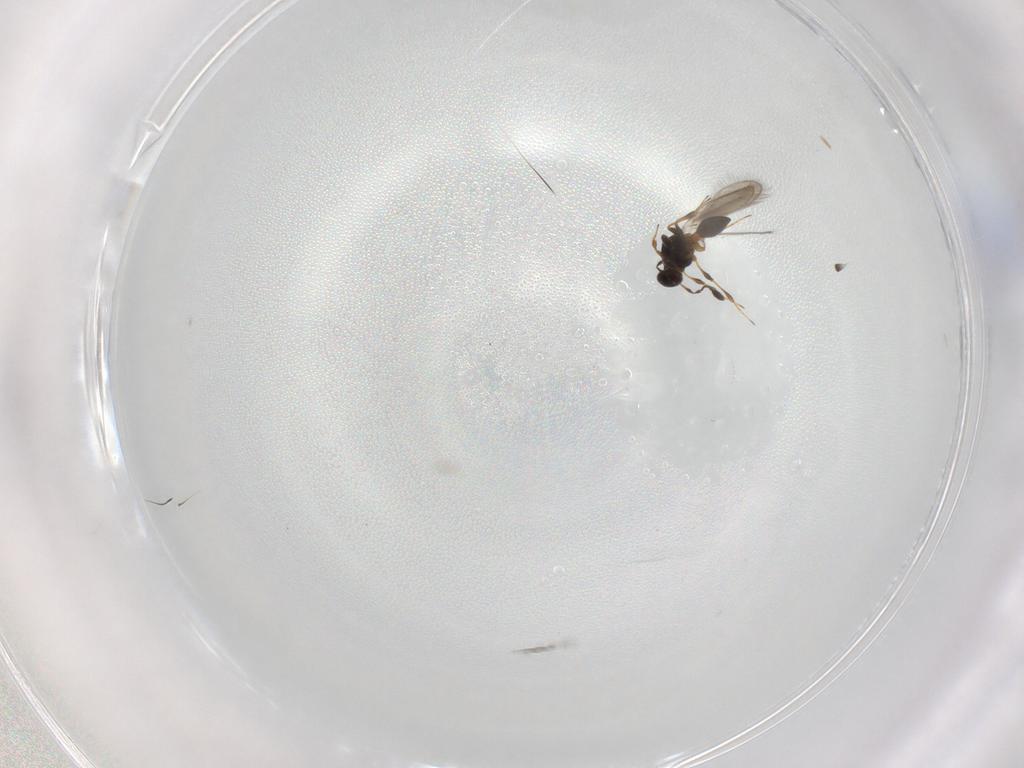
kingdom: Animalia
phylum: Arthropoda
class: Insecta
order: Hymenoptera
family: Platygastridae
